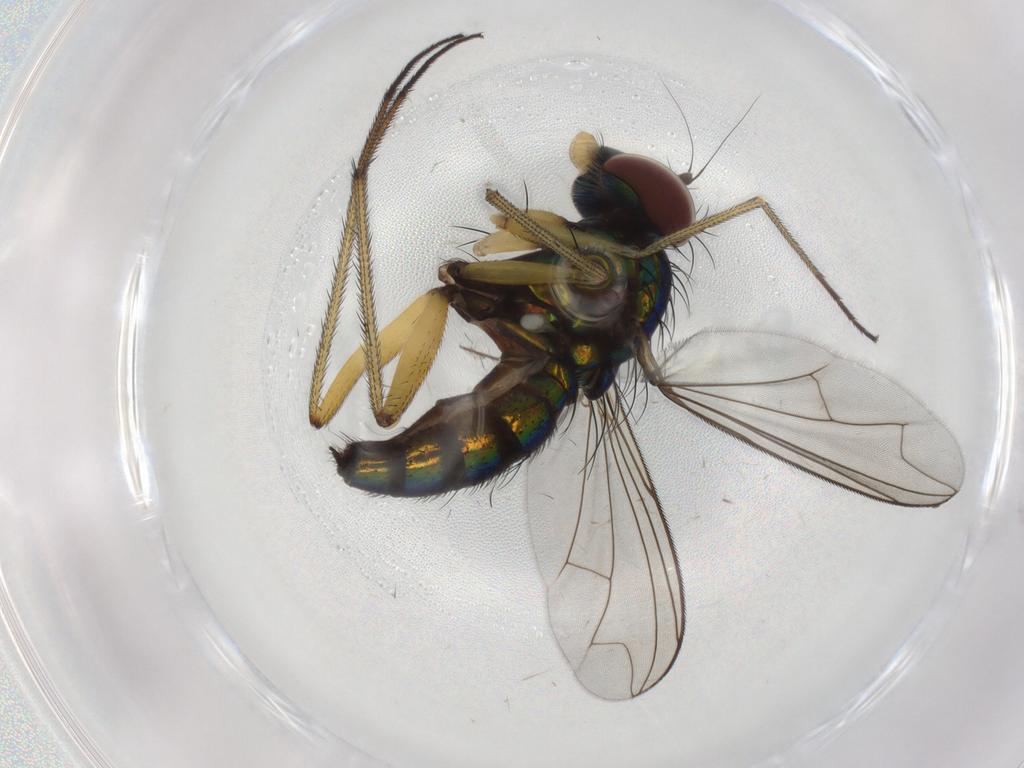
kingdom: Animalia
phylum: Arthropoda
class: Insecta
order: Diptera
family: Dolichopodidae
